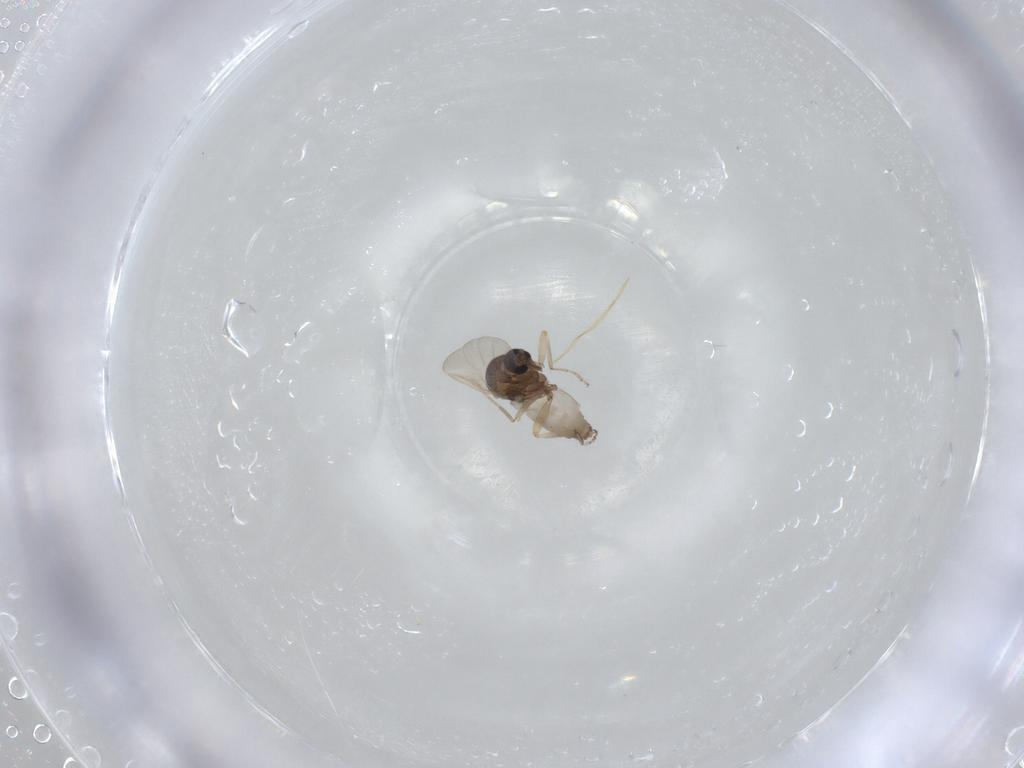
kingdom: Animalia
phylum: Arthropoda
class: Insecta
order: Diptera
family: Ceratopogonidae
